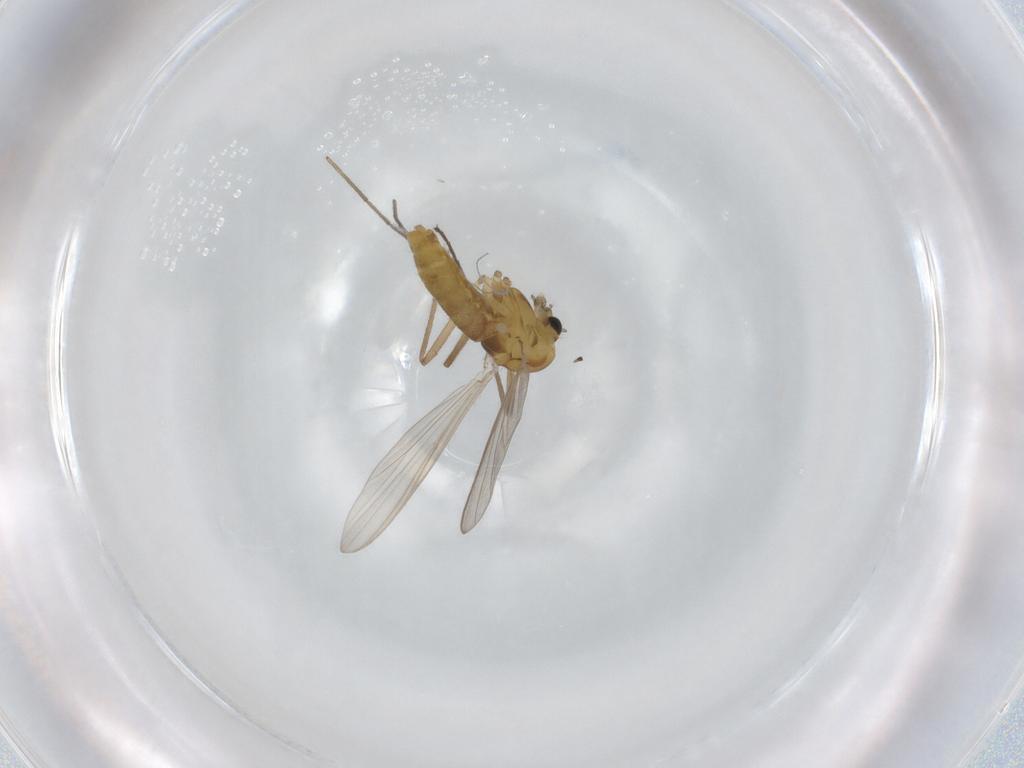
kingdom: Animalia
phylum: Arthropoda
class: Insecta
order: Diptera
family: Chironomidae
